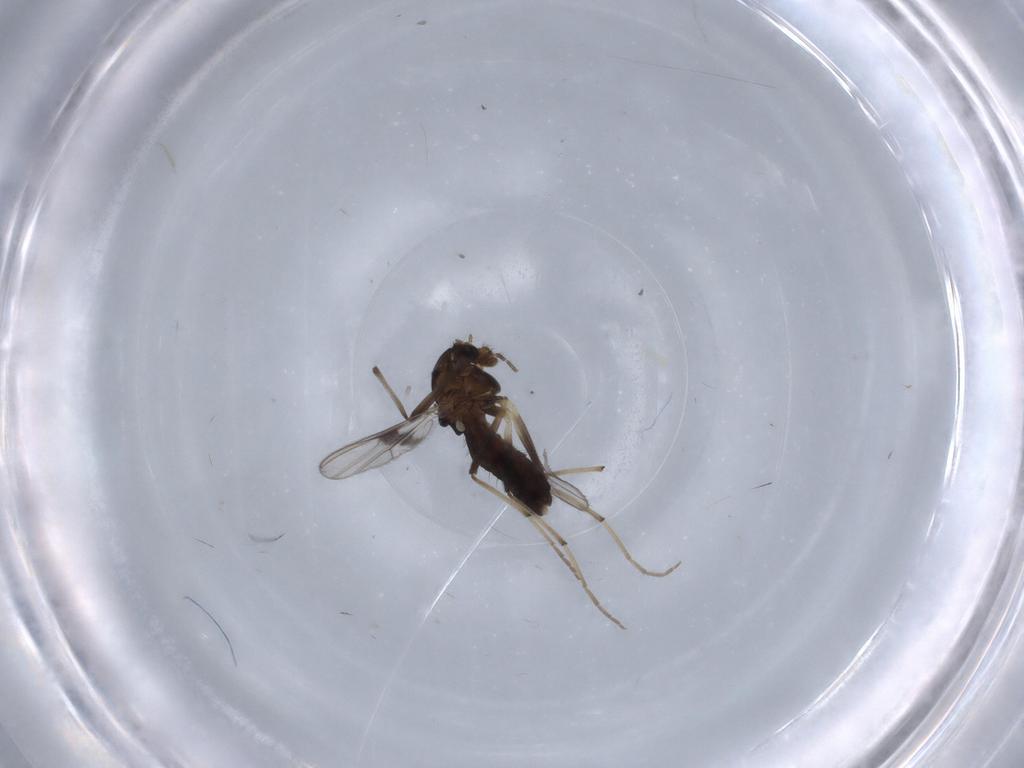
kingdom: Animalia
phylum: Arthropoda
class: Insecta
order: Diptera
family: Chironomidae
